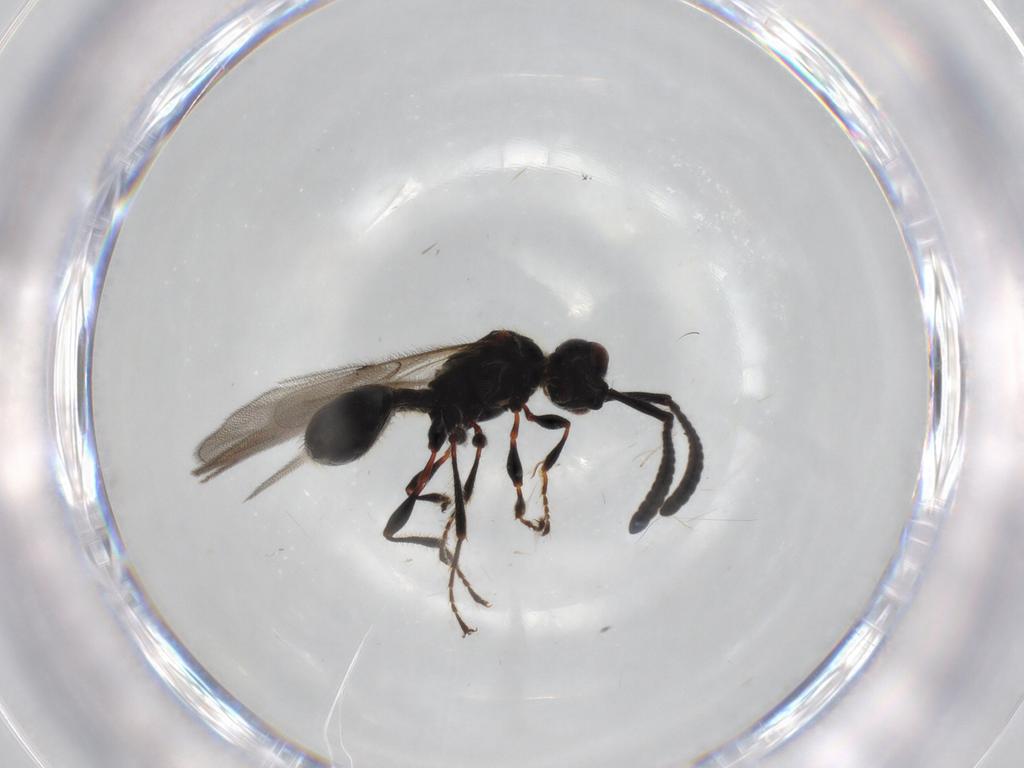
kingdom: Animalia
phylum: Arthropoda
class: Insecta
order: Hymenoptera
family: Diapriidae
